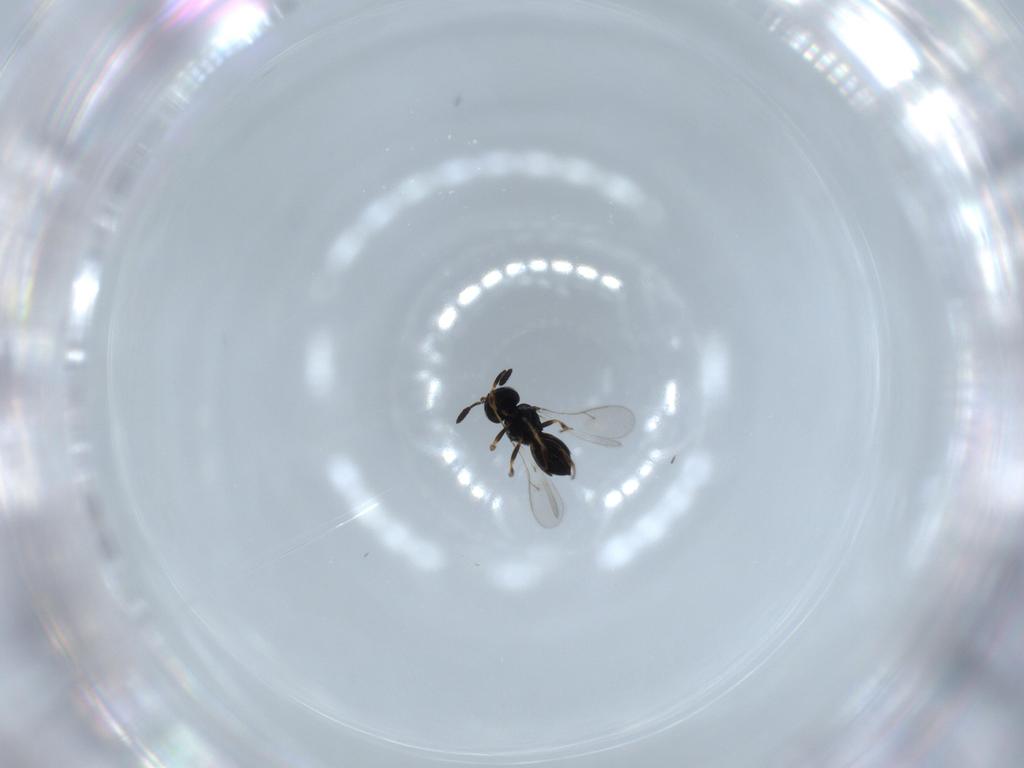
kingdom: Animalia
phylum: Arthropoda
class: Insecta
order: Hymenoptera
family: Scelionidae
